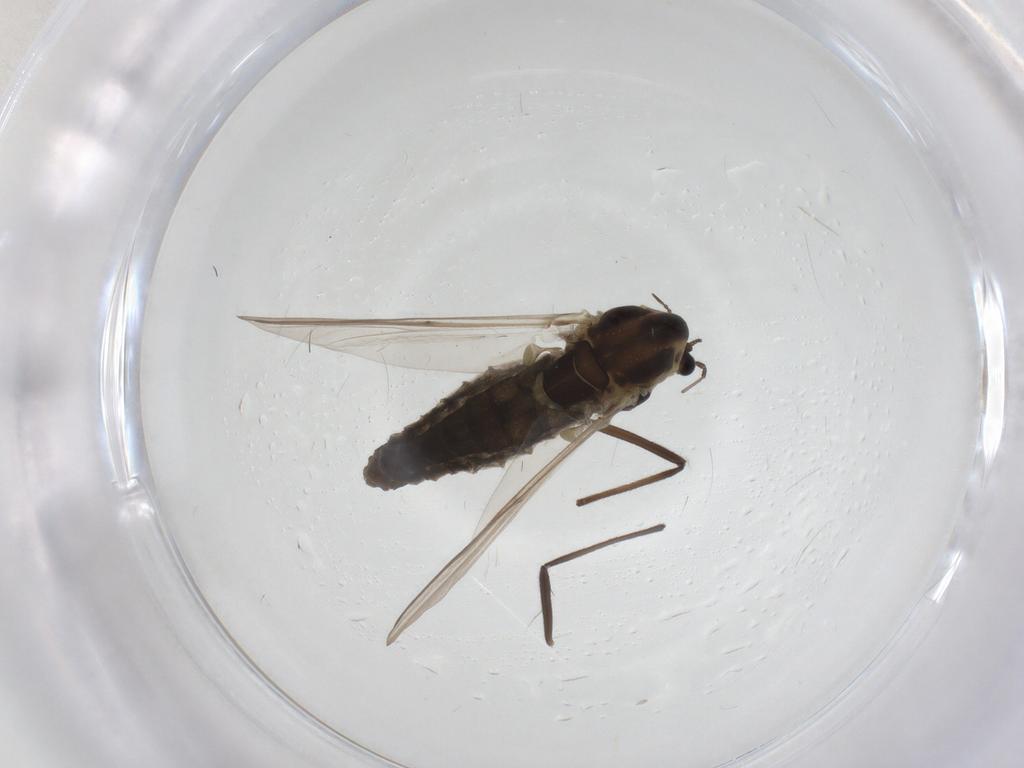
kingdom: Animalia
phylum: Arthropoda
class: Insecta
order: Diptera
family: Chironomidae
